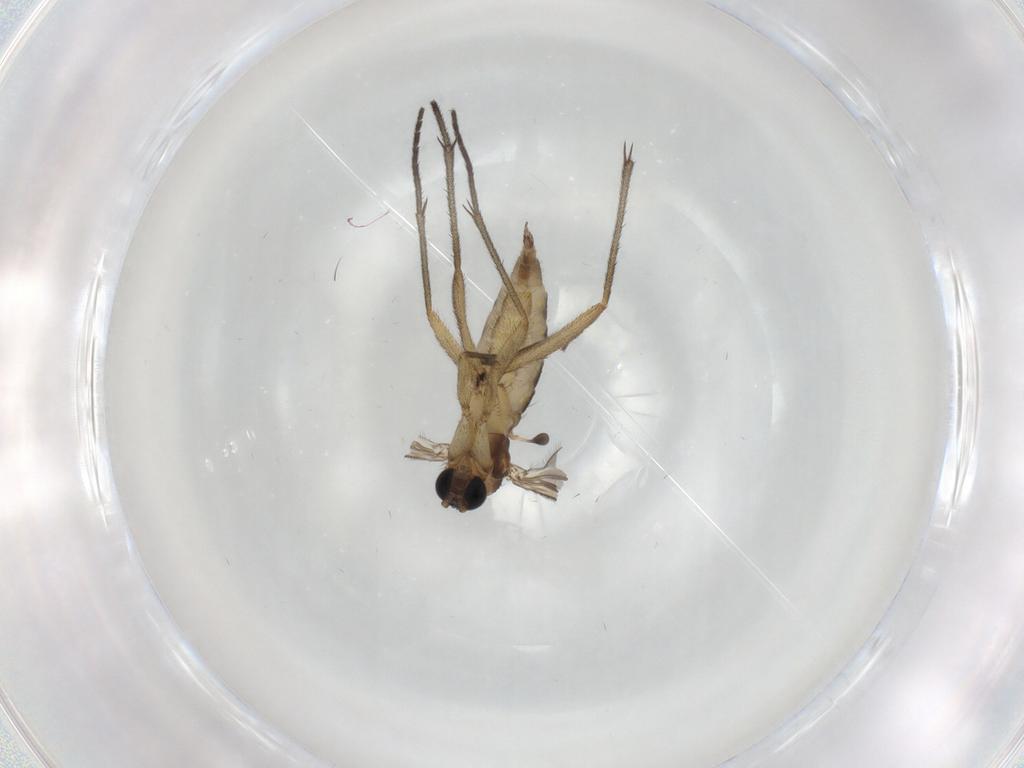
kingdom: Animalia
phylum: Arthropoda
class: Insecta
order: Diptera
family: Sciaridae
